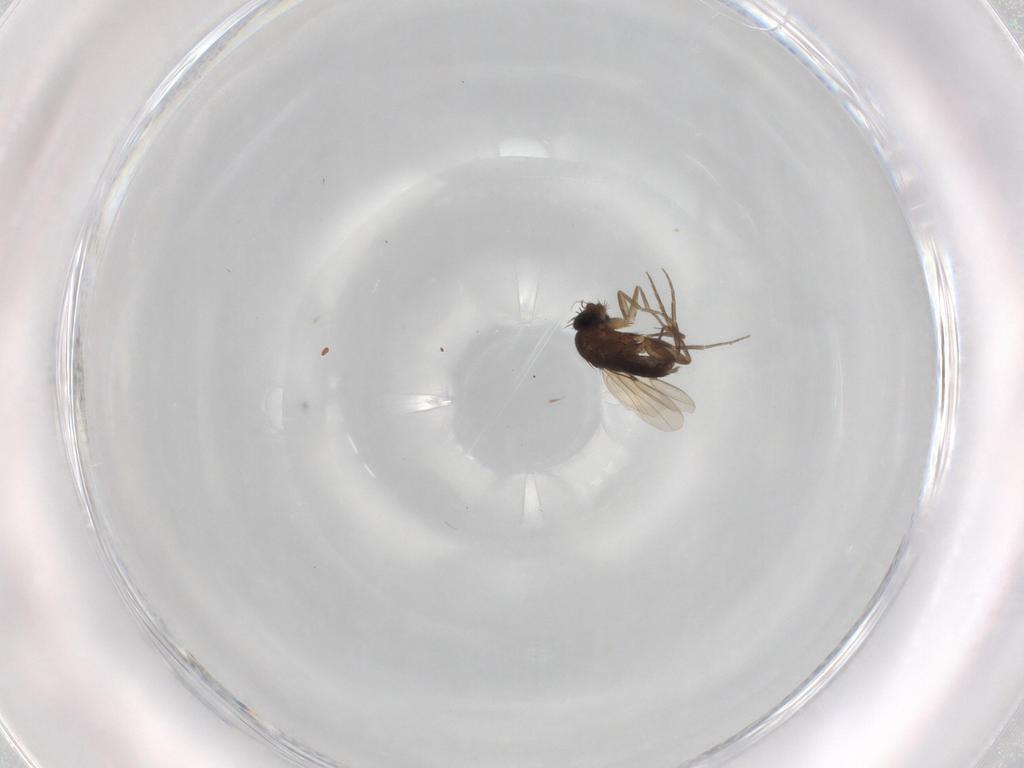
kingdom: Animalia
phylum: Arthropoda
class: Insecta
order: Diptera
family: Phoridae
